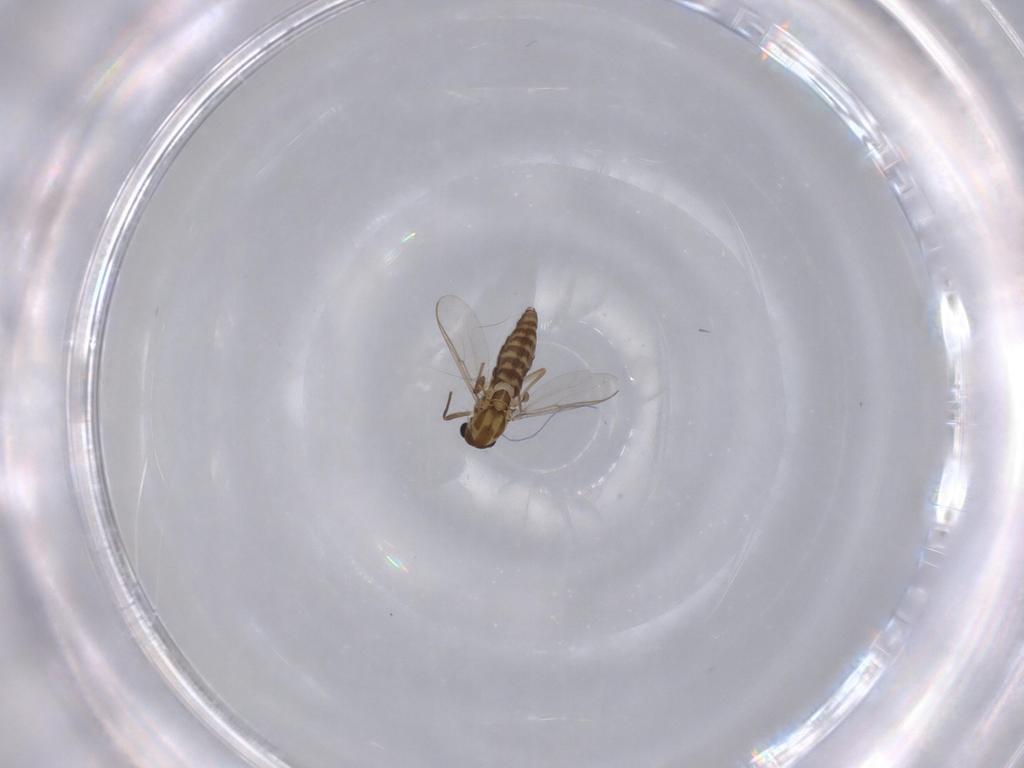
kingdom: Animalia
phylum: Arthropoda
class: Insecta
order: Diptera
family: Chironomidae
